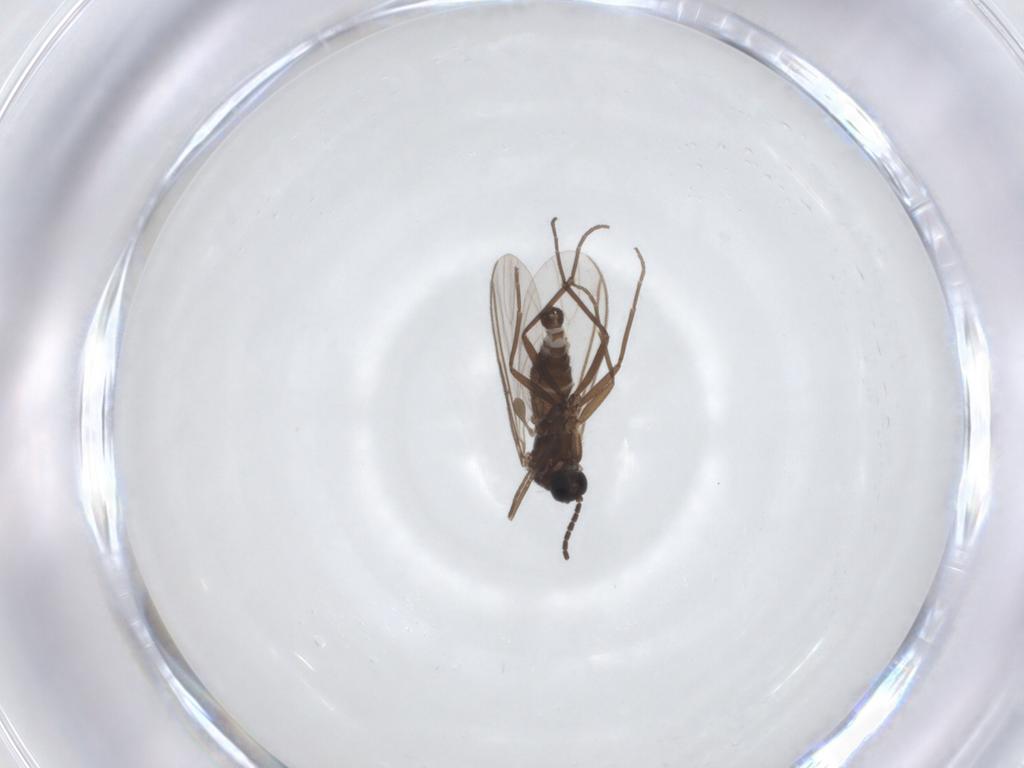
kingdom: Animalia
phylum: Arthropoda
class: Insecta
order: Diptera
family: Sciaridae
